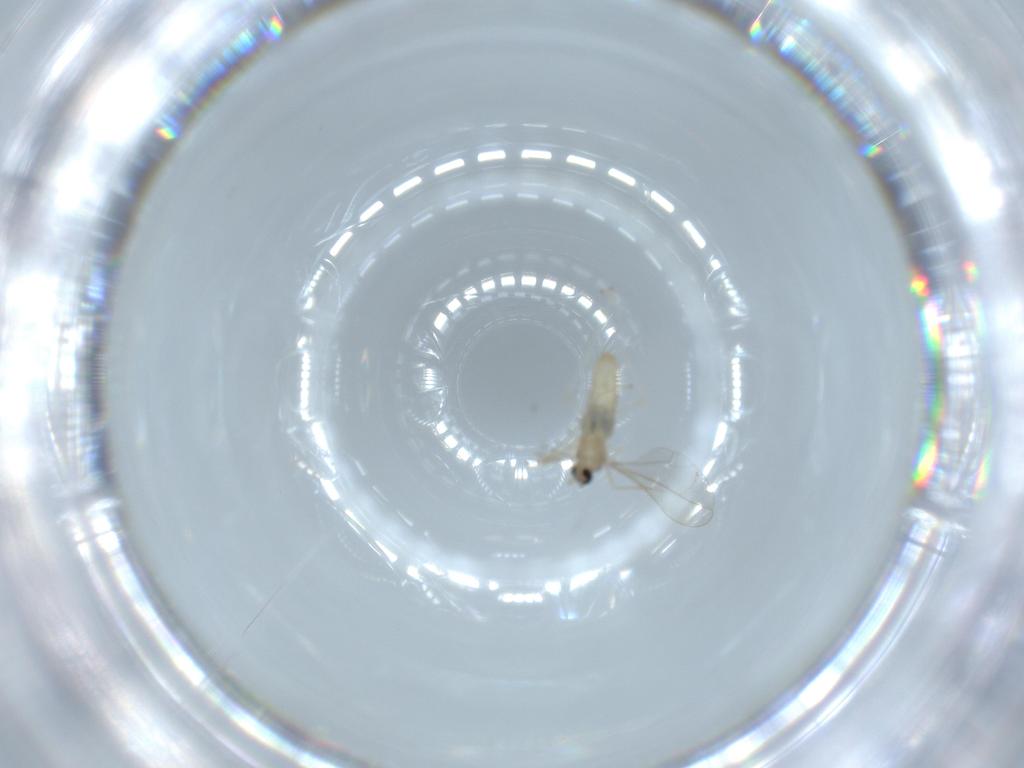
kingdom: Animalia
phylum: Arthropoda
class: Insecta
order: Diptera
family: Cecidomyiidae
